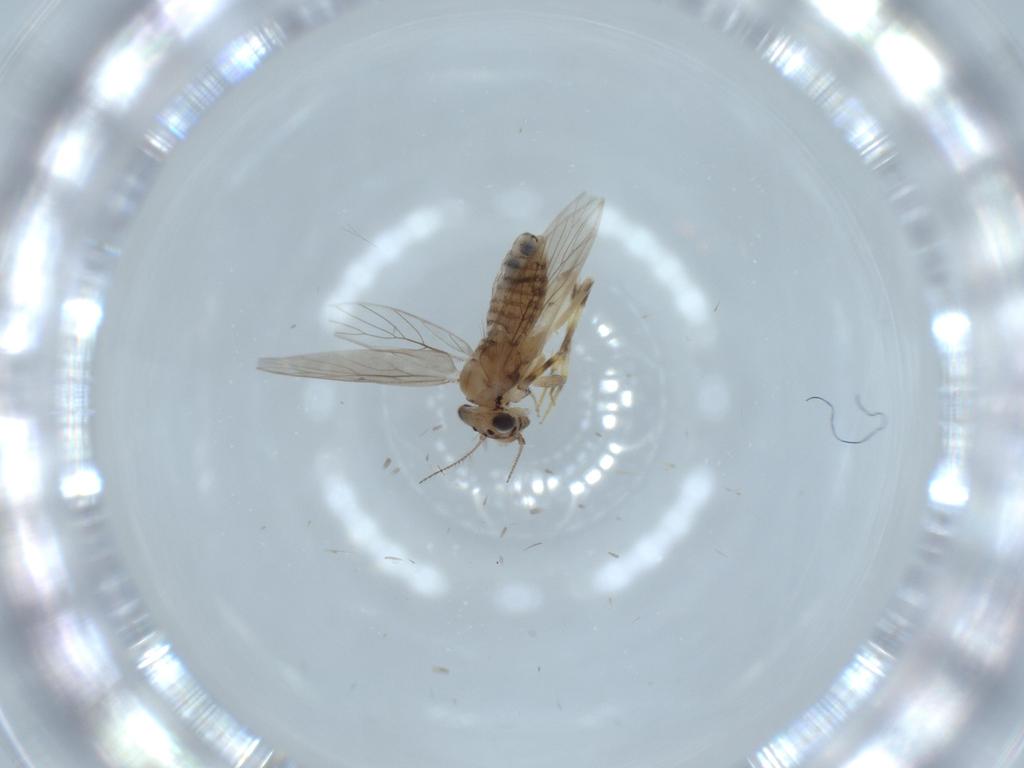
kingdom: Animalia
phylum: Arthropoda
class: Insecta
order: Psocodea
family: Lepidopsocidae
